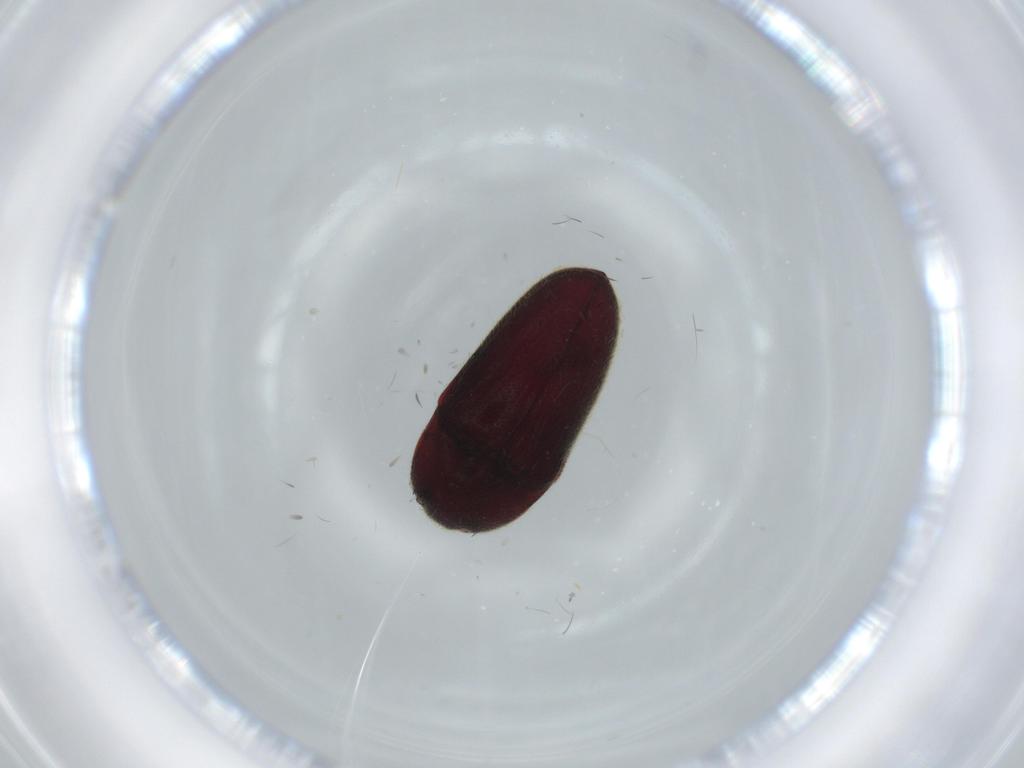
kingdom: Animalia
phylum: Arthropoda
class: Insecta
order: Coleoptera
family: Throscidae
